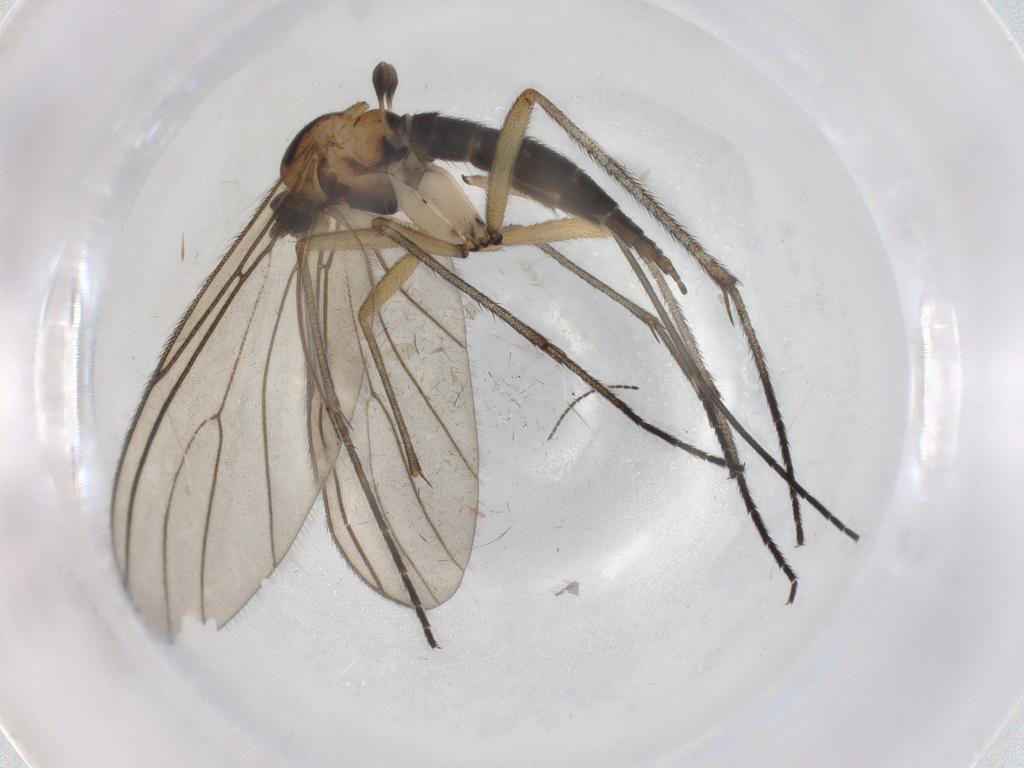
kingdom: Animalia
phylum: Arthropoda
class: Insecta
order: Diptera
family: Sciaridae
